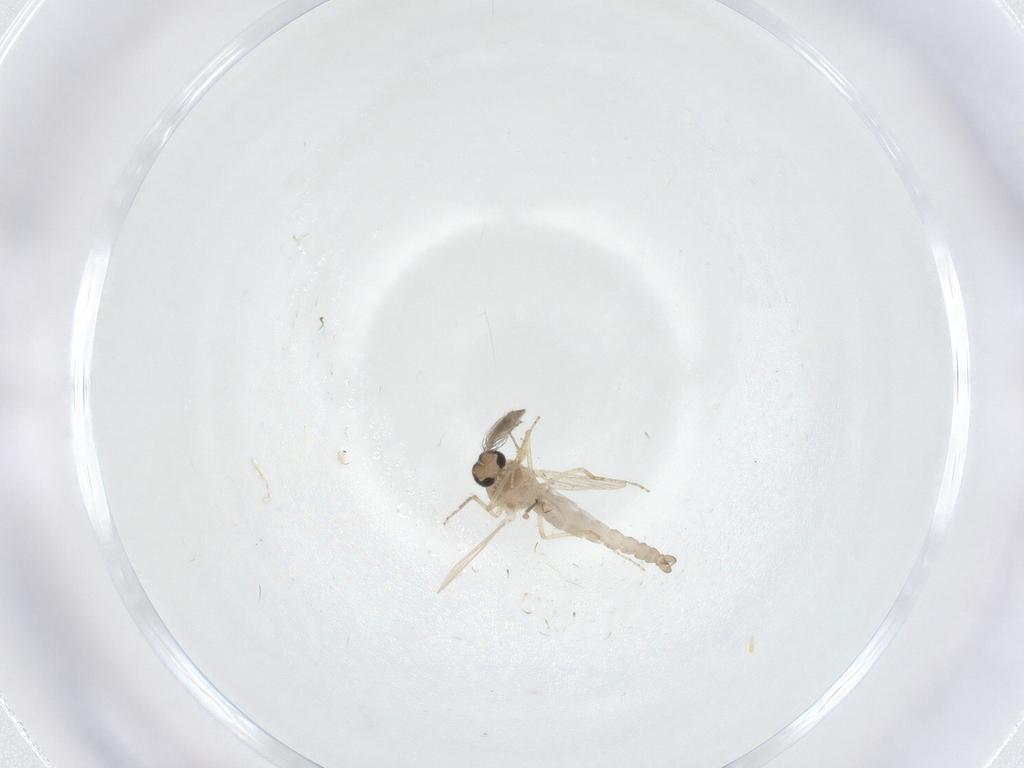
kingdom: Animalia
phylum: Arthropoda
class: Insecta
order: Diptera
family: Ceratopogonidae
